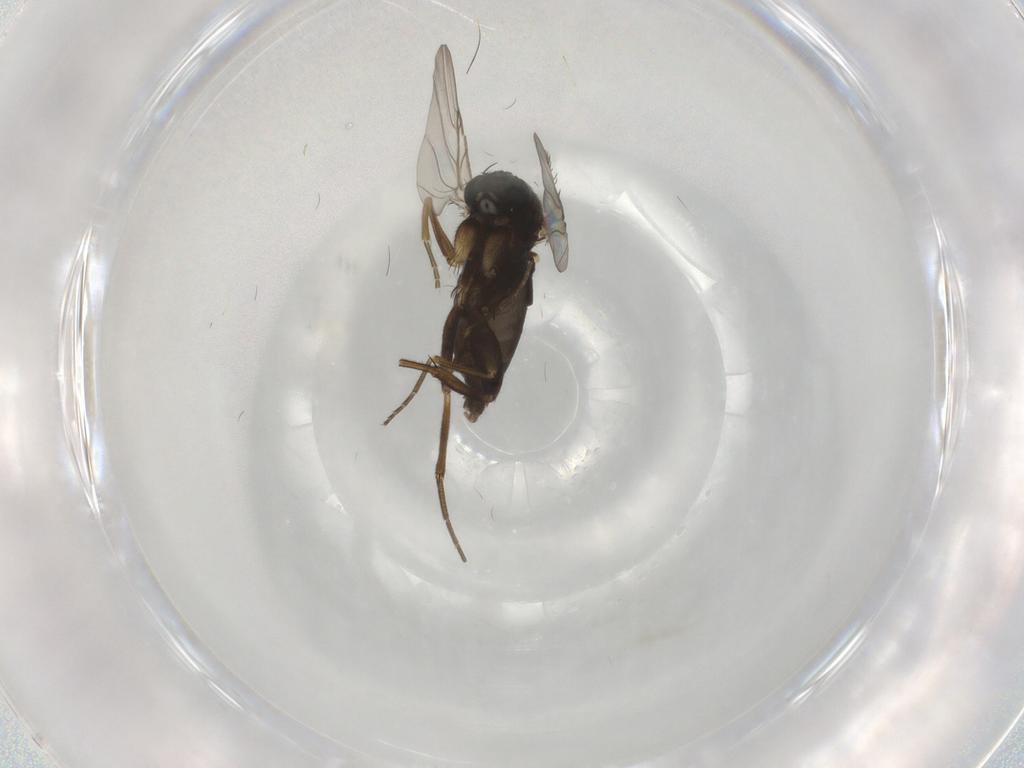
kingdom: Animalia
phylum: Arthropoda
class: Insecta
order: Diptera
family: Phoridae
